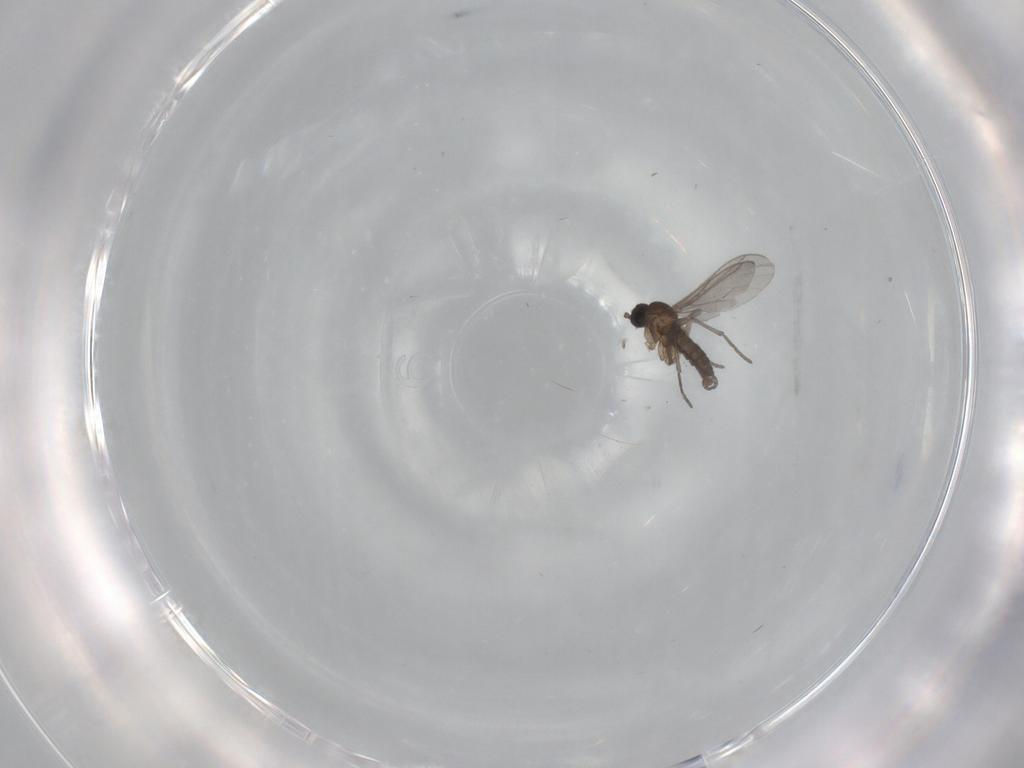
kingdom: Animalia
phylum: Arthropoda
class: Insecta
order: Diptera
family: Sciaridae
